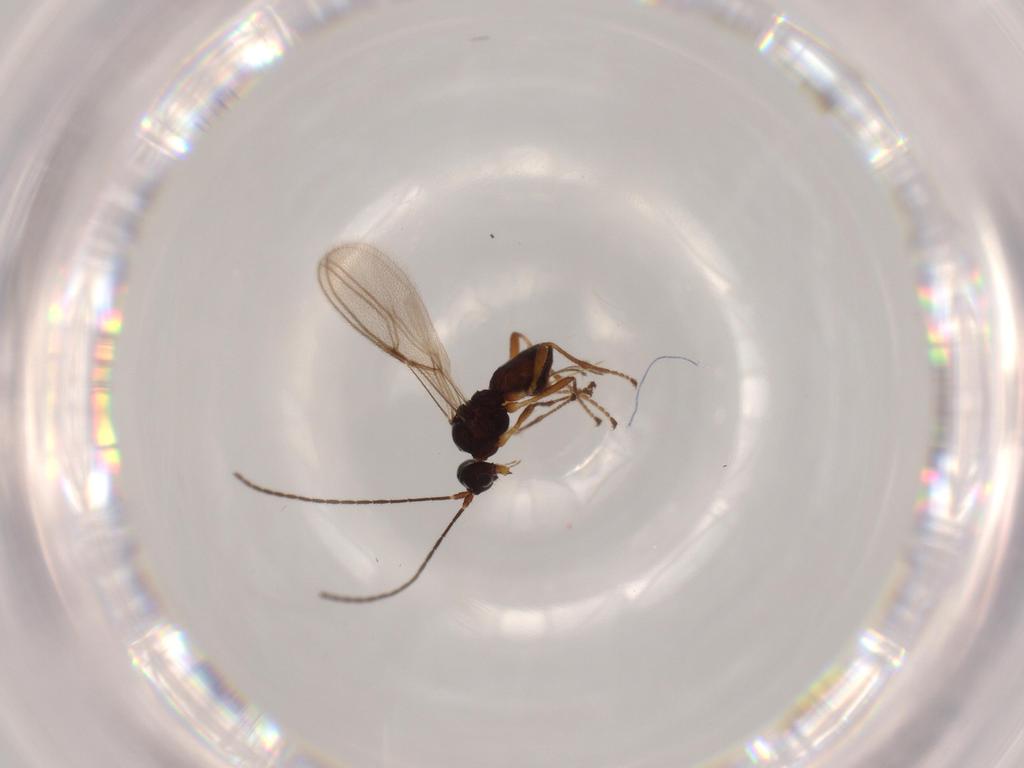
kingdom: Animalia
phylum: Arthropoda
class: Insecta
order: Hymenoptera
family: Braconidae
